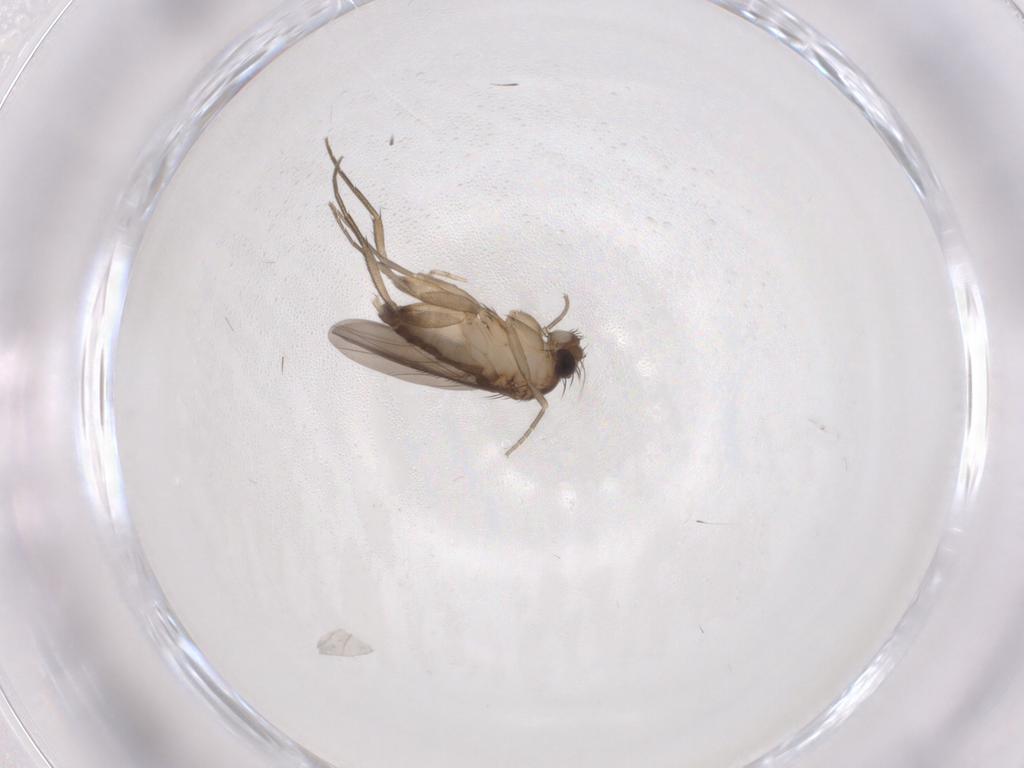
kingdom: Animalia
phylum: Arthropoda
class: Insecta
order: Diptera
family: Phoridae
